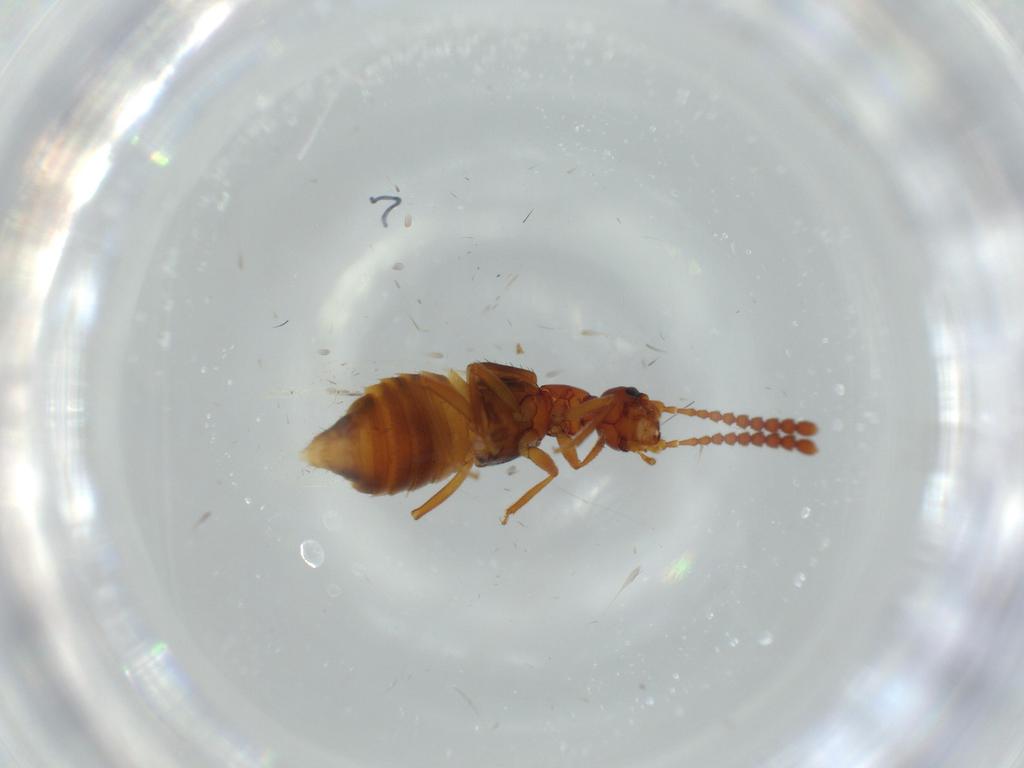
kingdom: Animalia
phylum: Arthropoda
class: Insecta
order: Coleoptera
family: Staphylinidae
